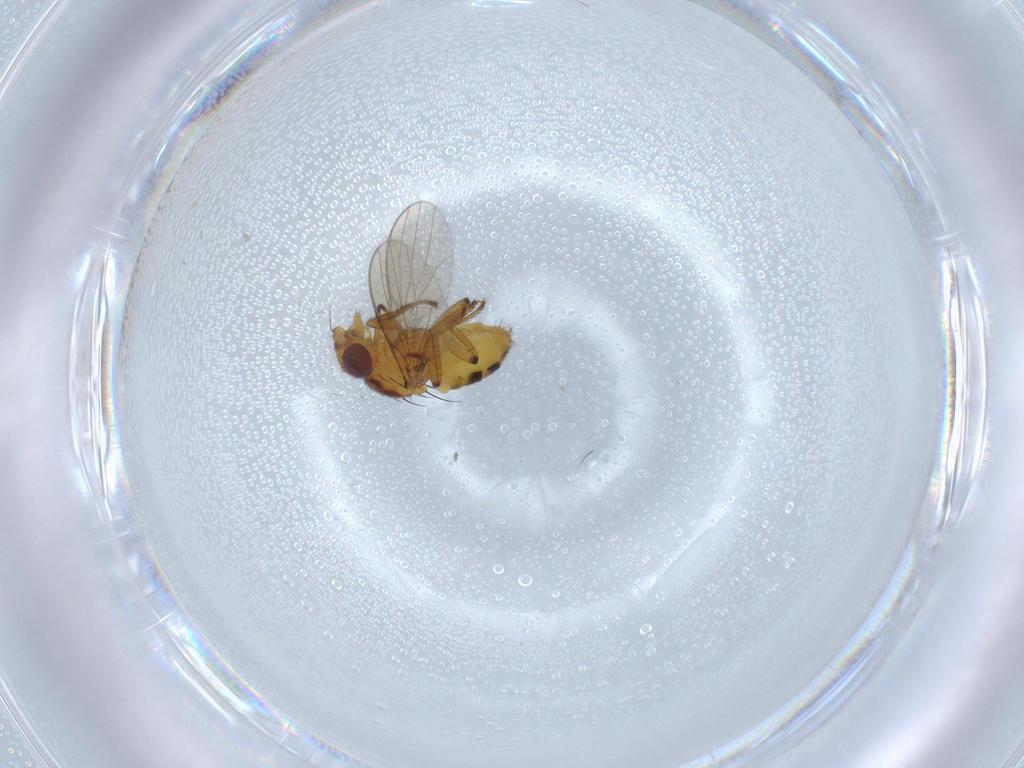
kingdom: Animalia
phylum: Arthropoda
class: Insecta
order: Diptera
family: Milichiidae
